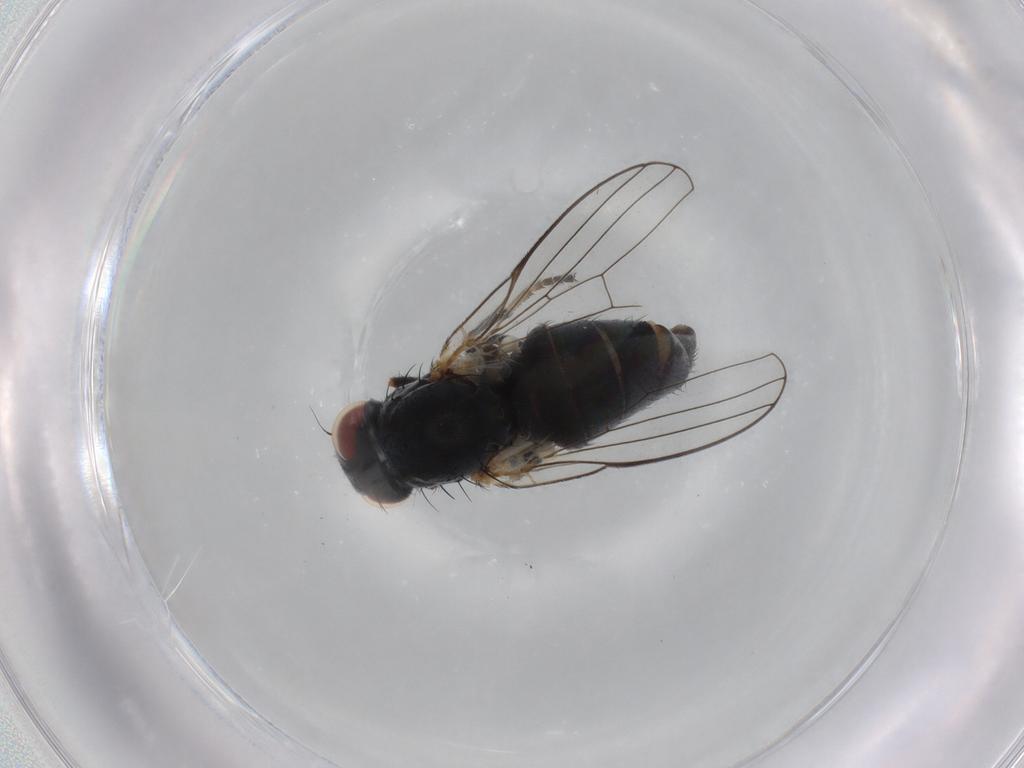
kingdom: Animalia
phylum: Arthropoda
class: Insecta
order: Diptera
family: Chamaemyiidae
